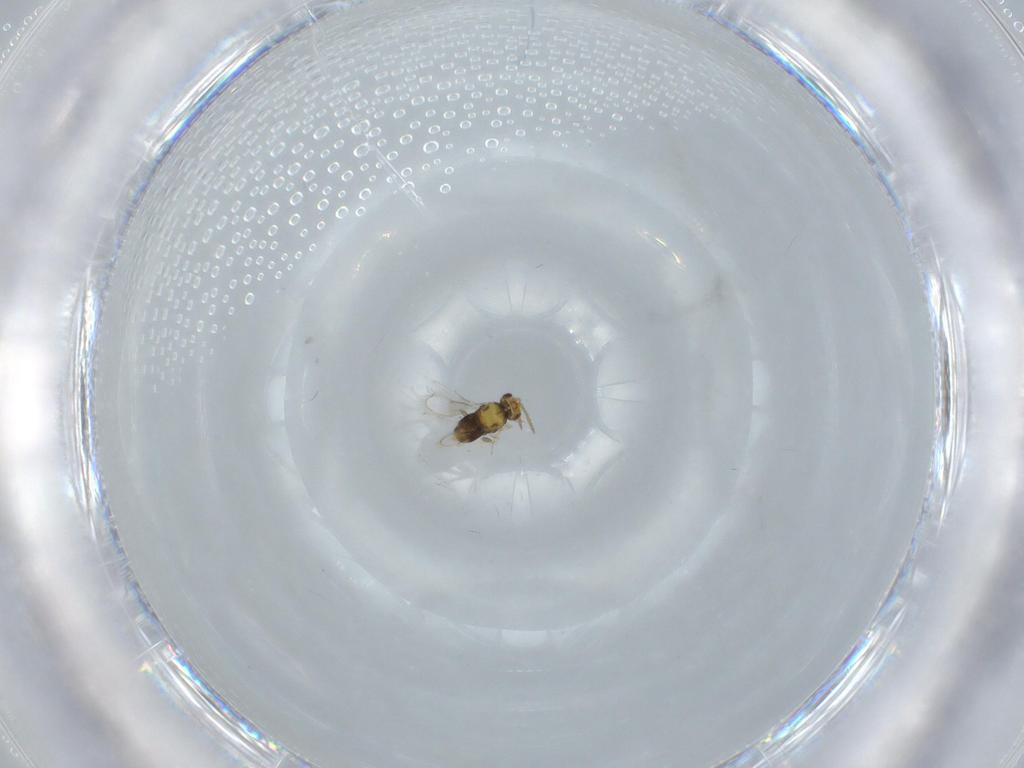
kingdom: Animalia
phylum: Arthropoda
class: Insecta
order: Hymenoptera
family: Aphelinidae
